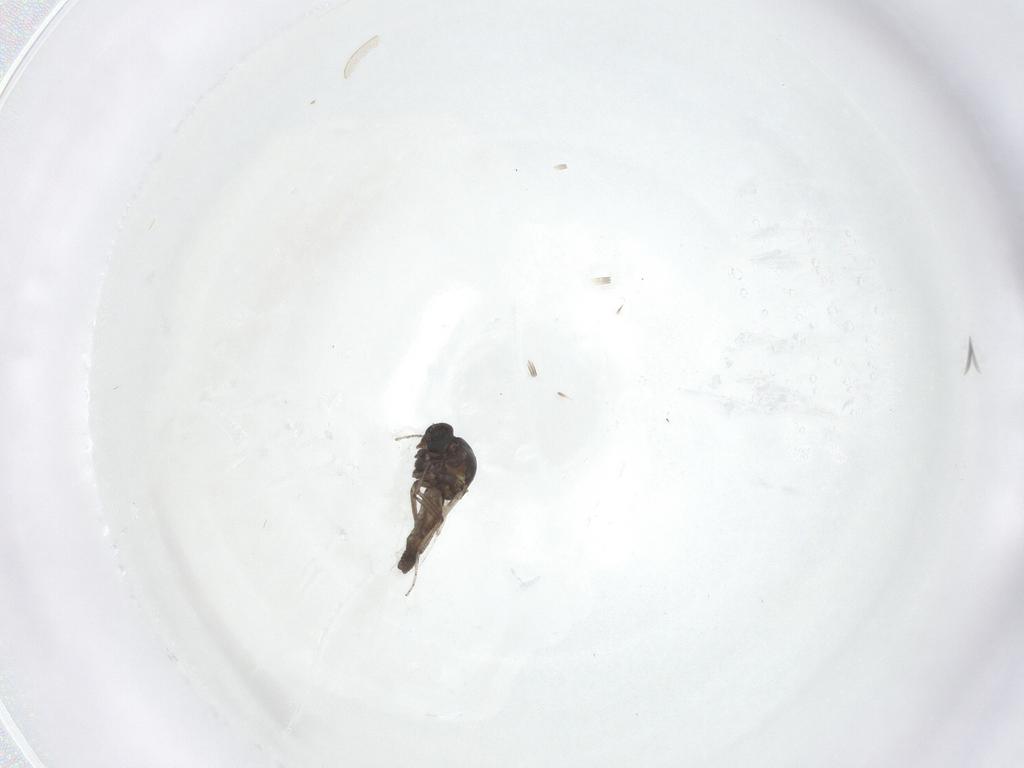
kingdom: Animalia
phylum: Arthropoda
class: Insecta
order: Diptera
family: Ceratopogonidae
